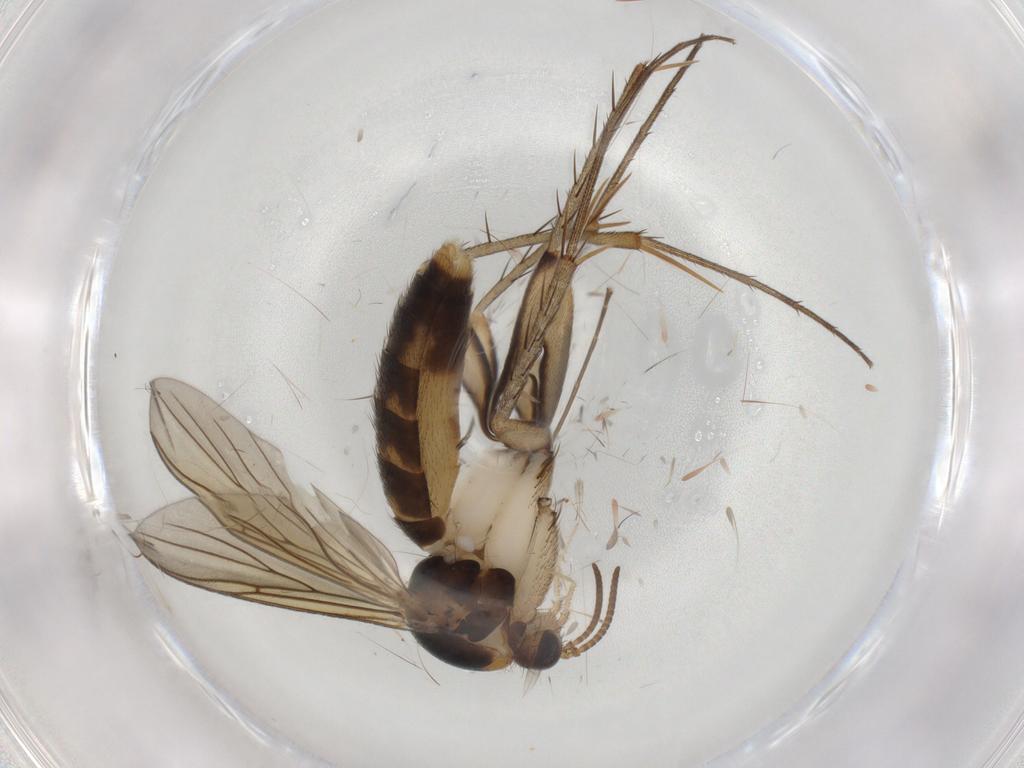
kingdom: Animalia
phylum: Arthropoda
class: Insecta
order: Diptera
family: Mycetophilidae
